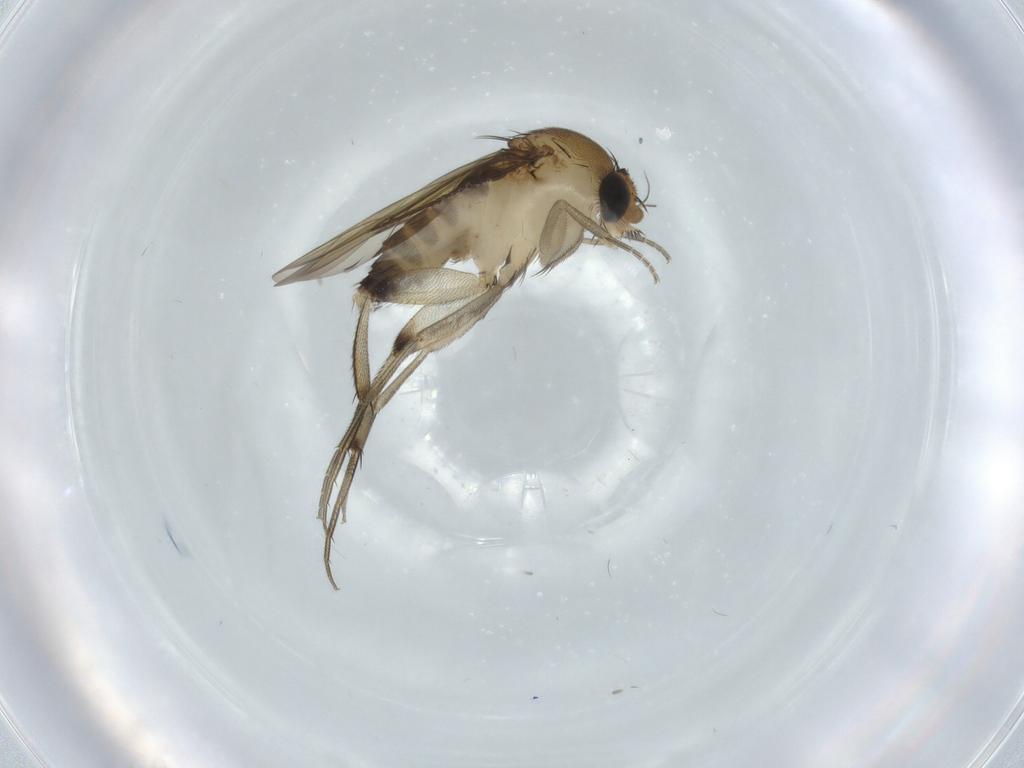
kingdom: Animalia
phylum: Arthropoda
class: Insecta
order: Diptera
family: Phoridae
